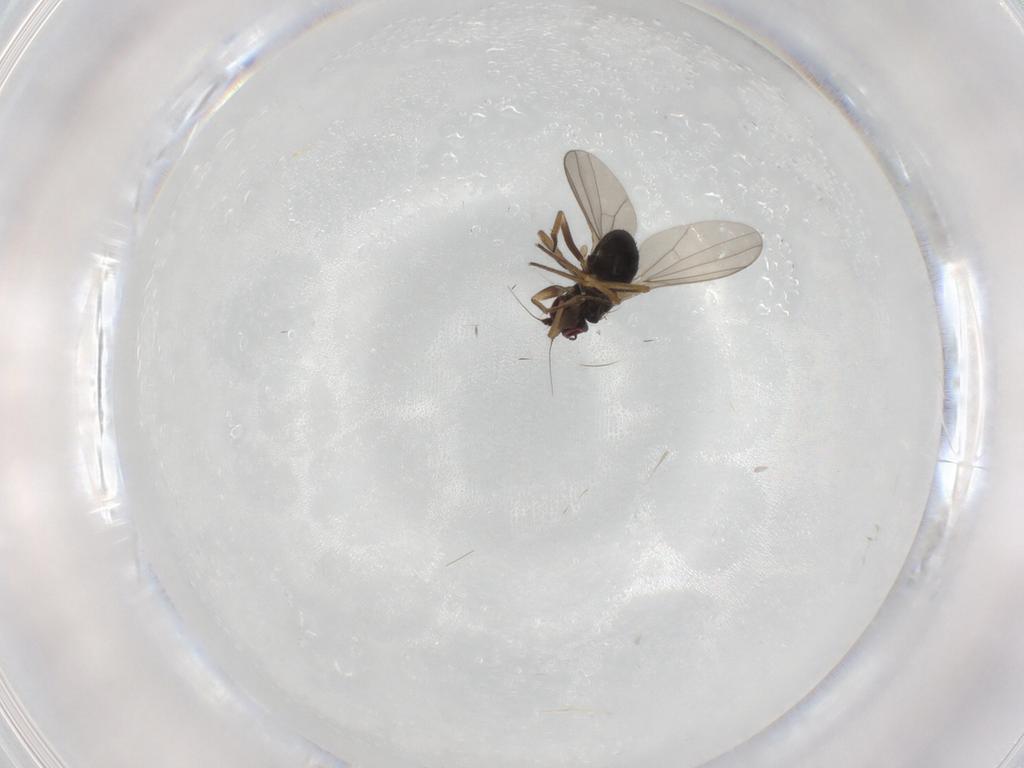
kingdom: Animalia
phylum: Arthropoda
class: Insecta
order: Diptera
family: Dolichopodidae
